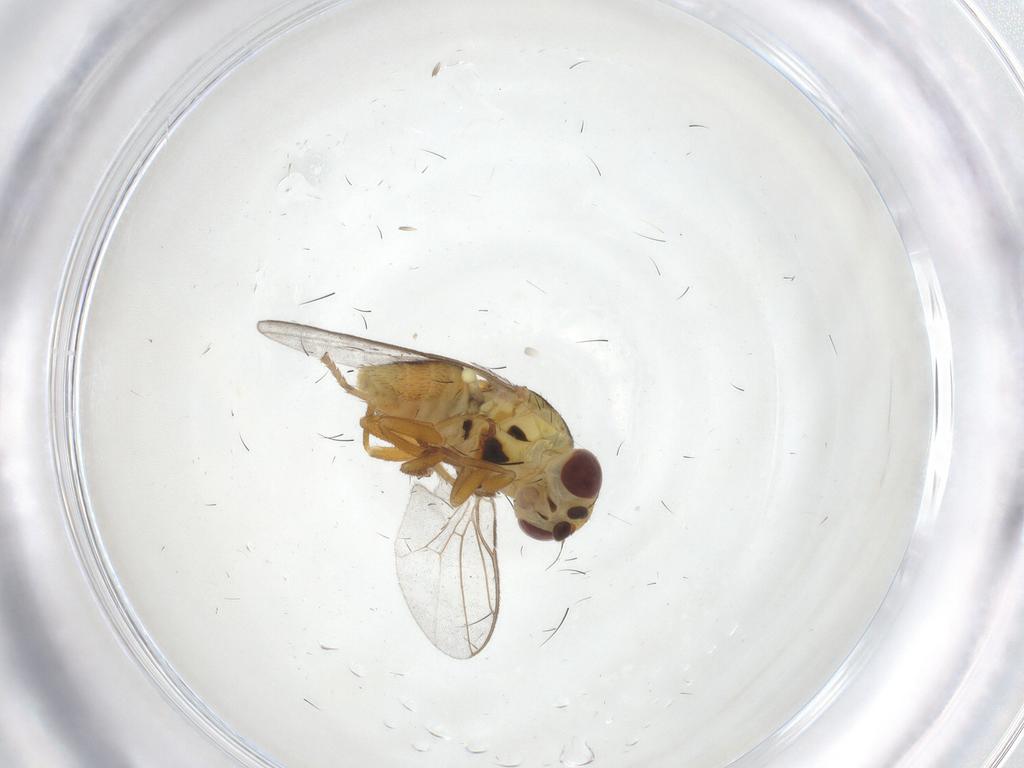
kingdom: Animalia
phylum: Arthropoda
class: Insecta
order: Diptera
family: Chloropidae
